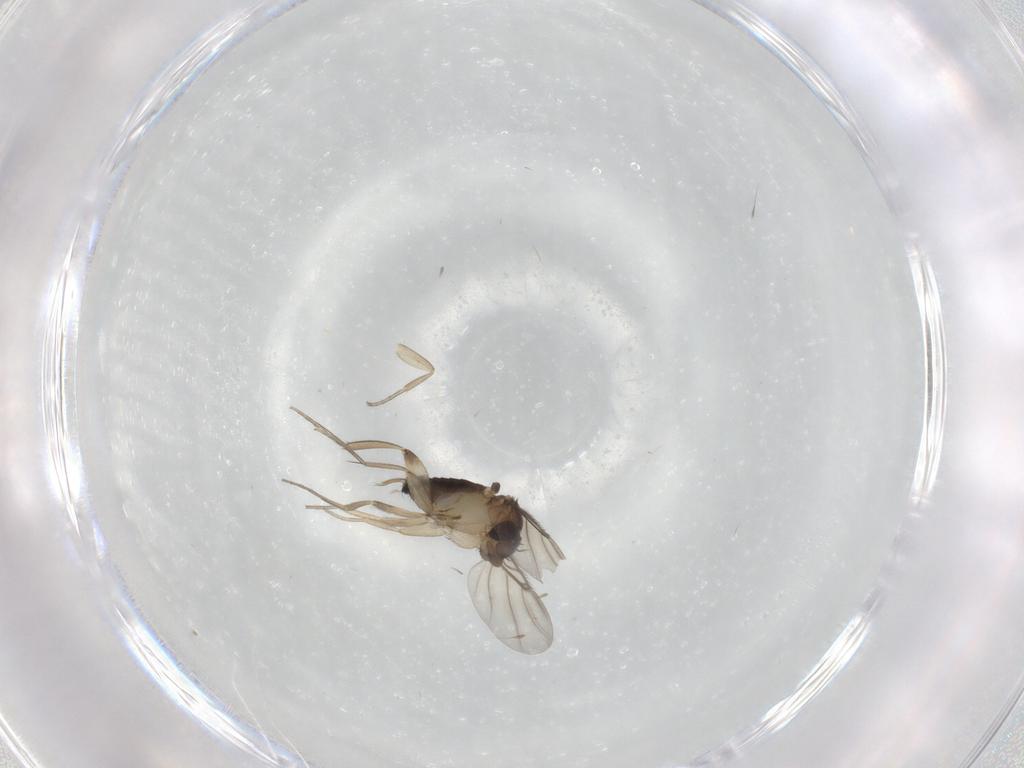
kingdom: Animalia
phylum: Arthropoda
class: Insecta
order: Diptera
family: Phoridae
